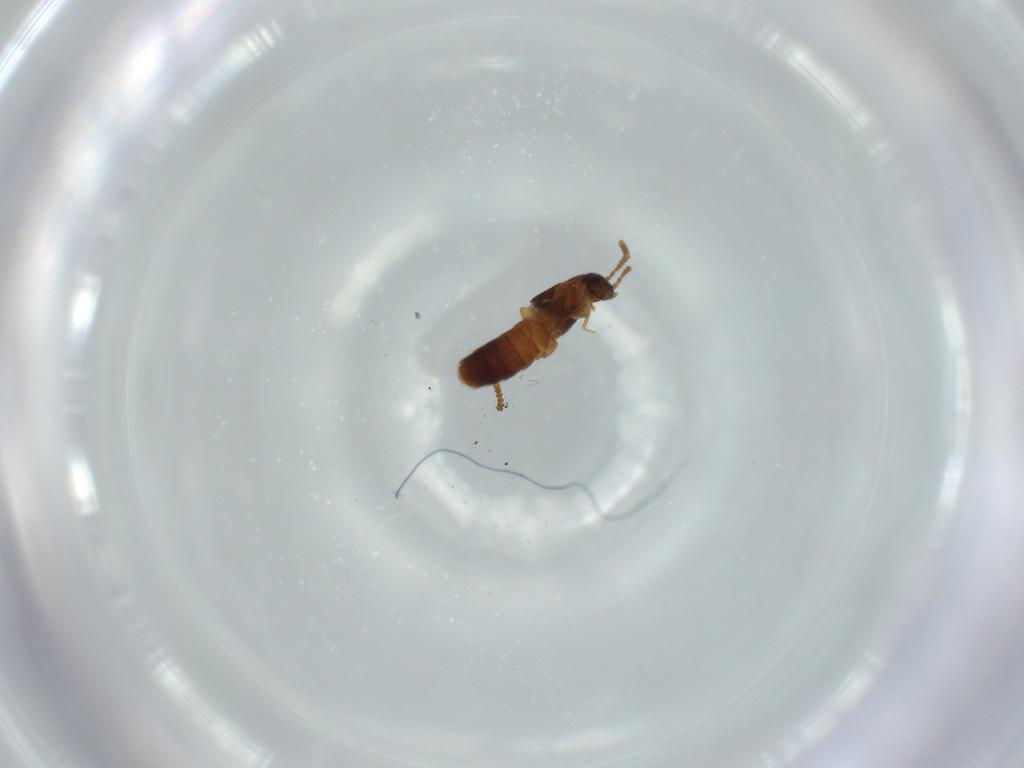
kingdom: Animalia
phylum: Arthropoda
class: Insecta
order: Coleoptera
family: Staphylinidae
